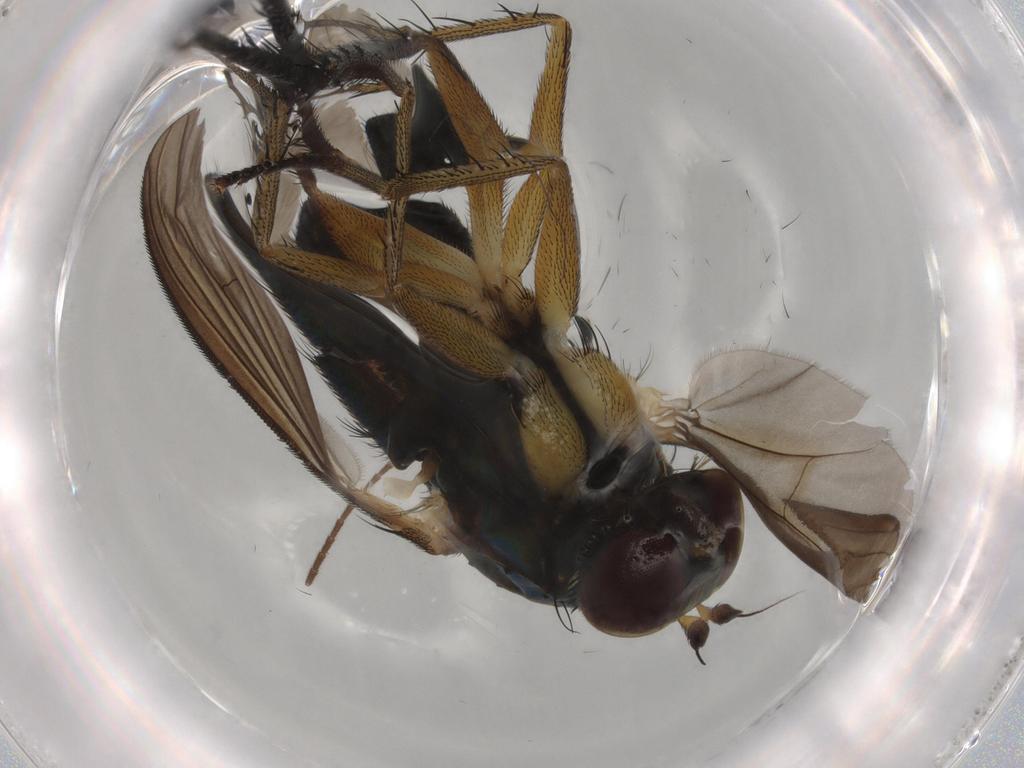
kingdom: Animalia
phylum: Arthropoda
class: Insecta
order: Diptera
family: Dolichopodidae
